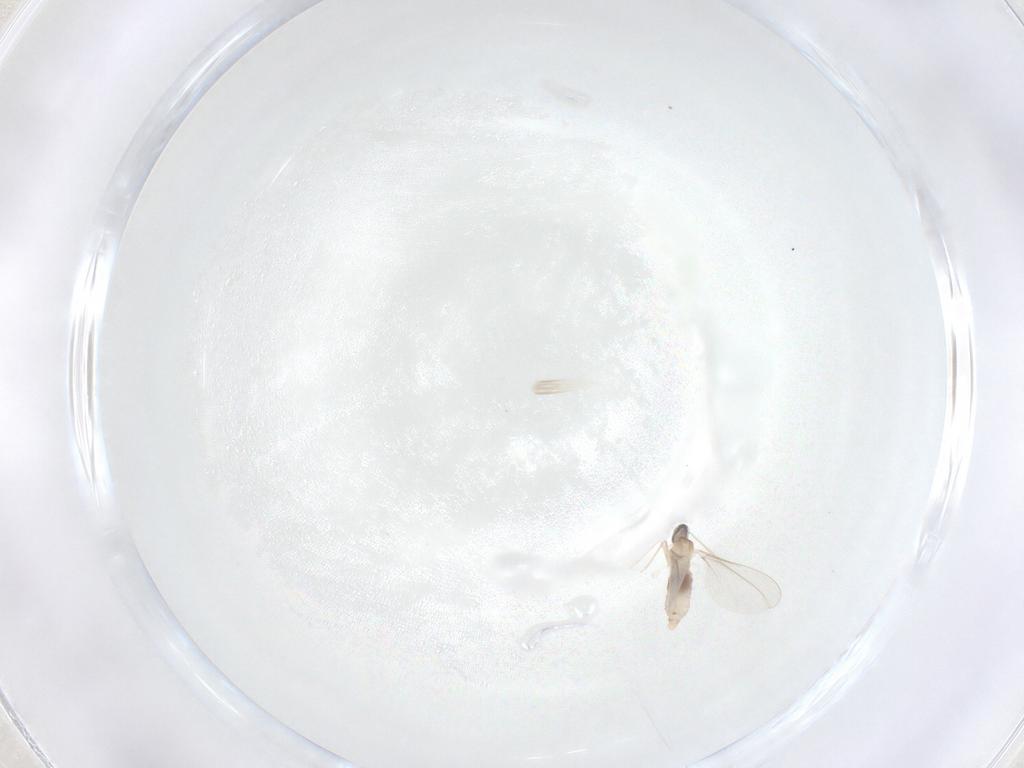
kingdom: Animalia
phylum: Arthropoda
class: Insecta
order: Diptera
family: Cecidomyiidae
